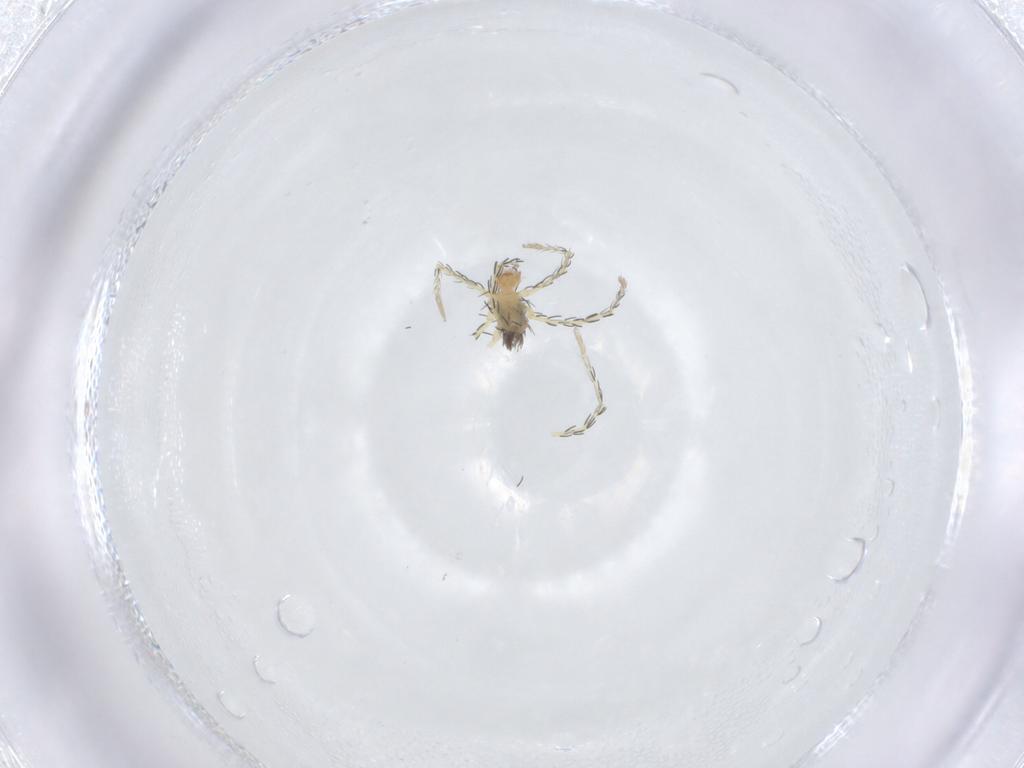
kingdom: Animalia
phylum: Arthropoda
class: Arachnida
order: Trombidiformes
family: Erythraeidae
